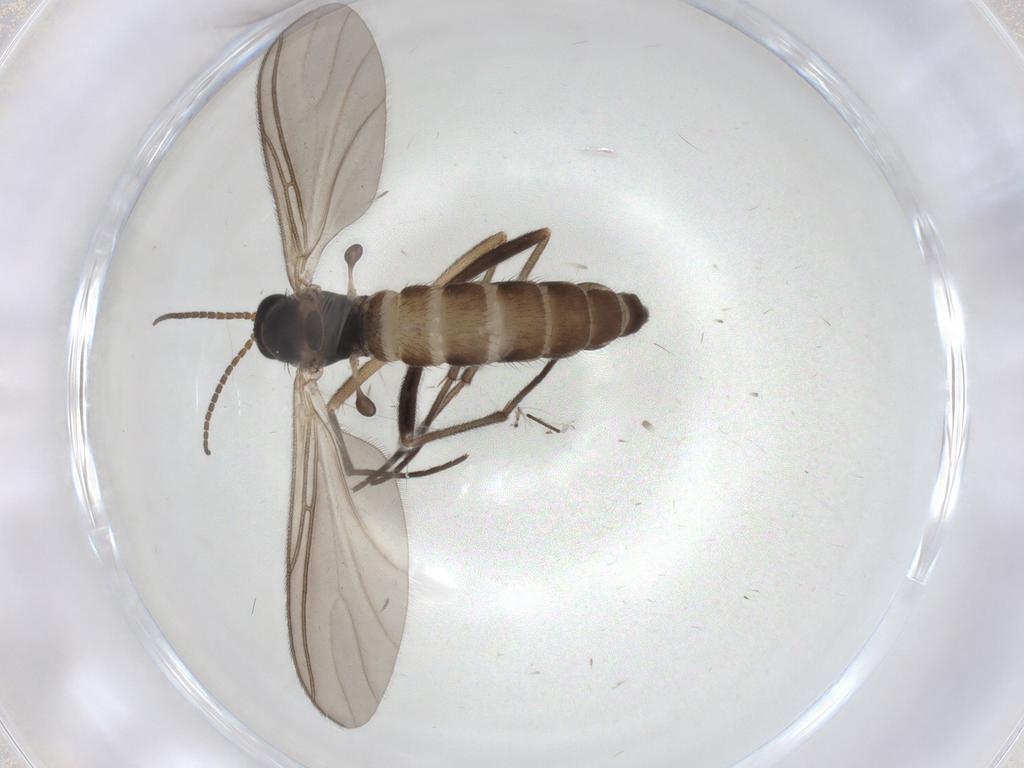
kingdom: Animalia
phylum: Arthropoda
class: Insecta
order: Diptera
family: Sciaridae
